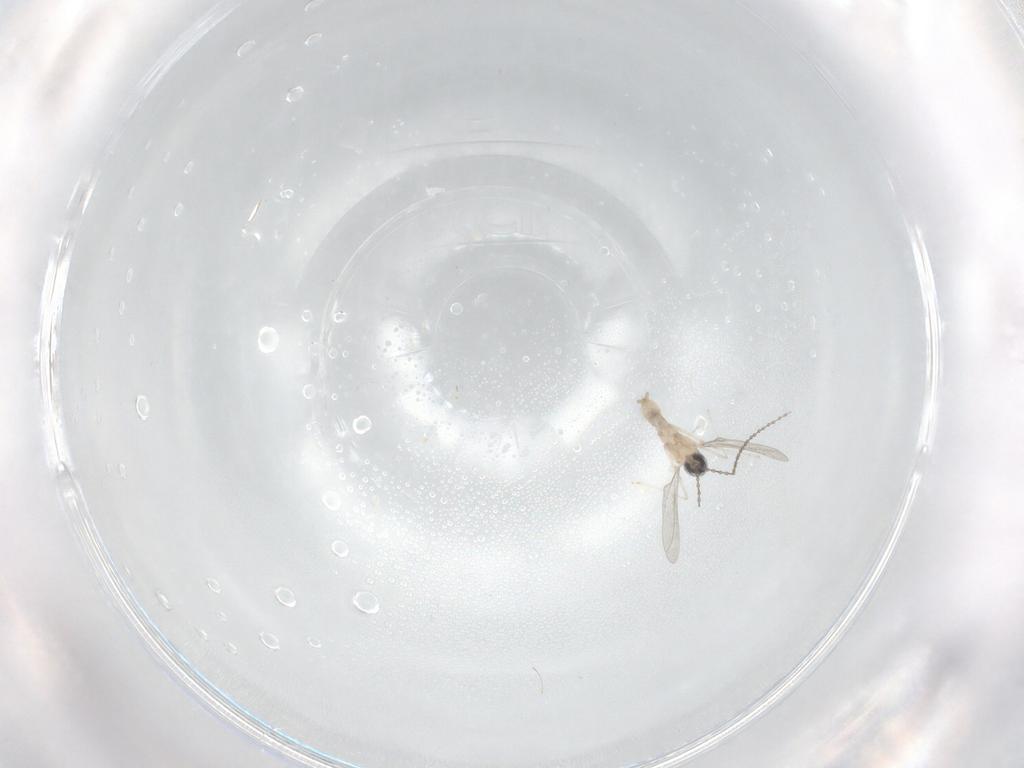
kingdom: Animalia
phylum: Arthropoda
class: Insecta
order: Diptera
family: Cecidomyiidae
